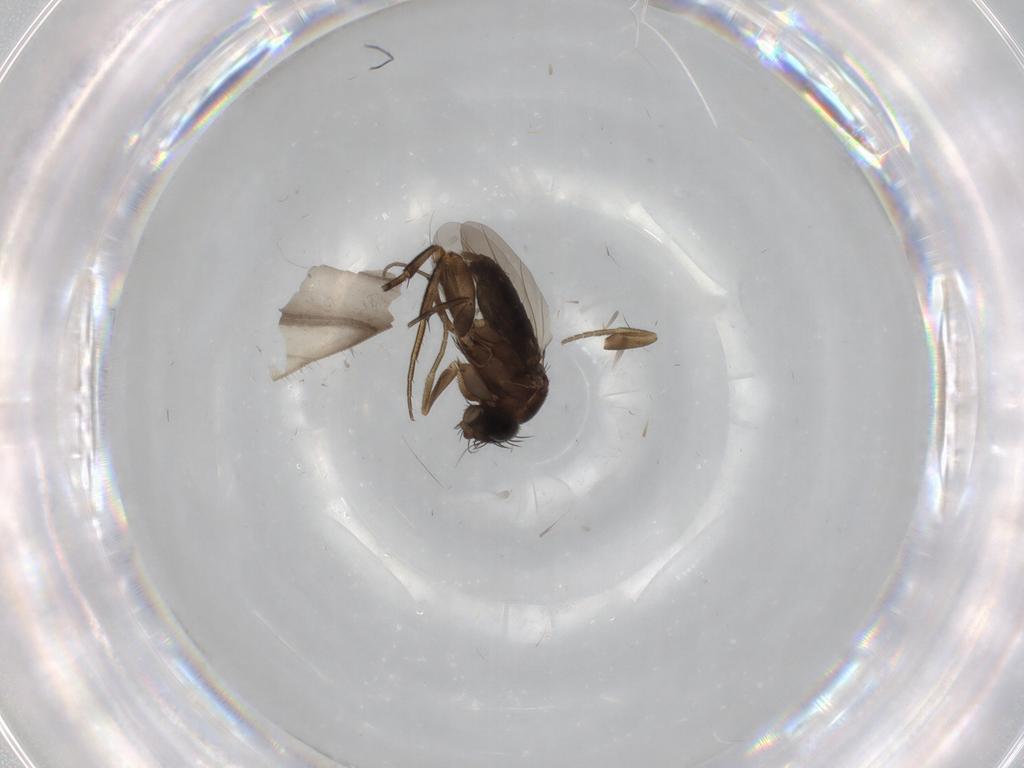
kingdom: Animalia
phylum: Arthropoda
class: Insecta
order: Diptera
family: Phoridae
